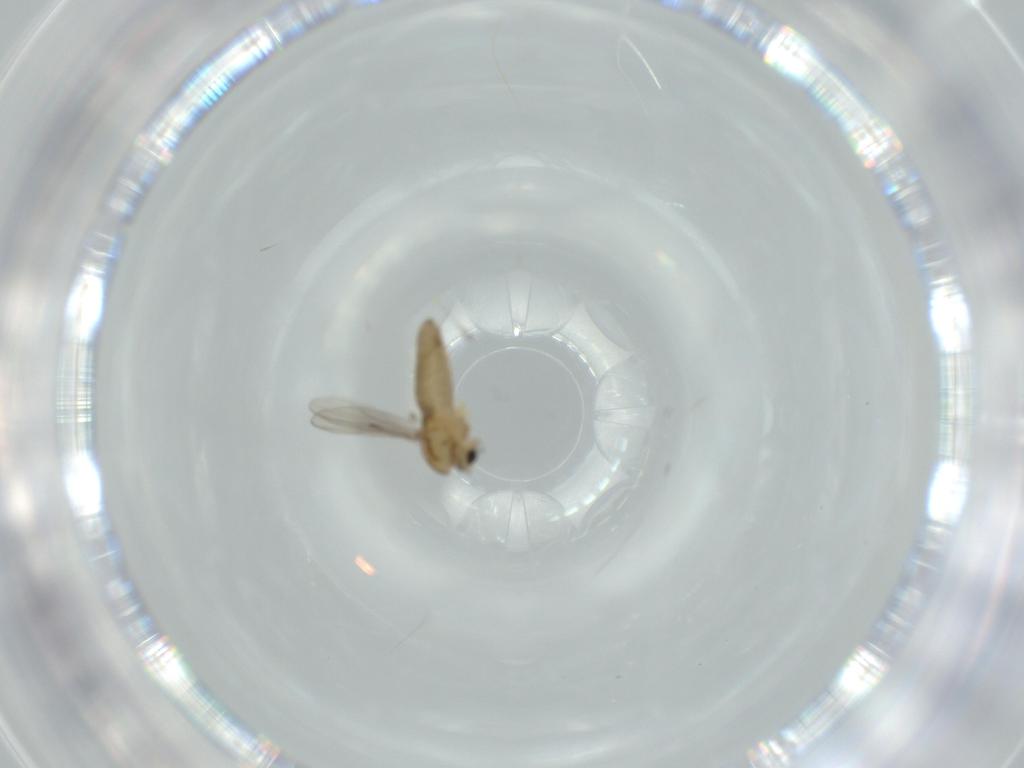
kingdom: Animalia
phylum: Arthropoda
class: Insecta
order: Diptera
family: Chironomidae
